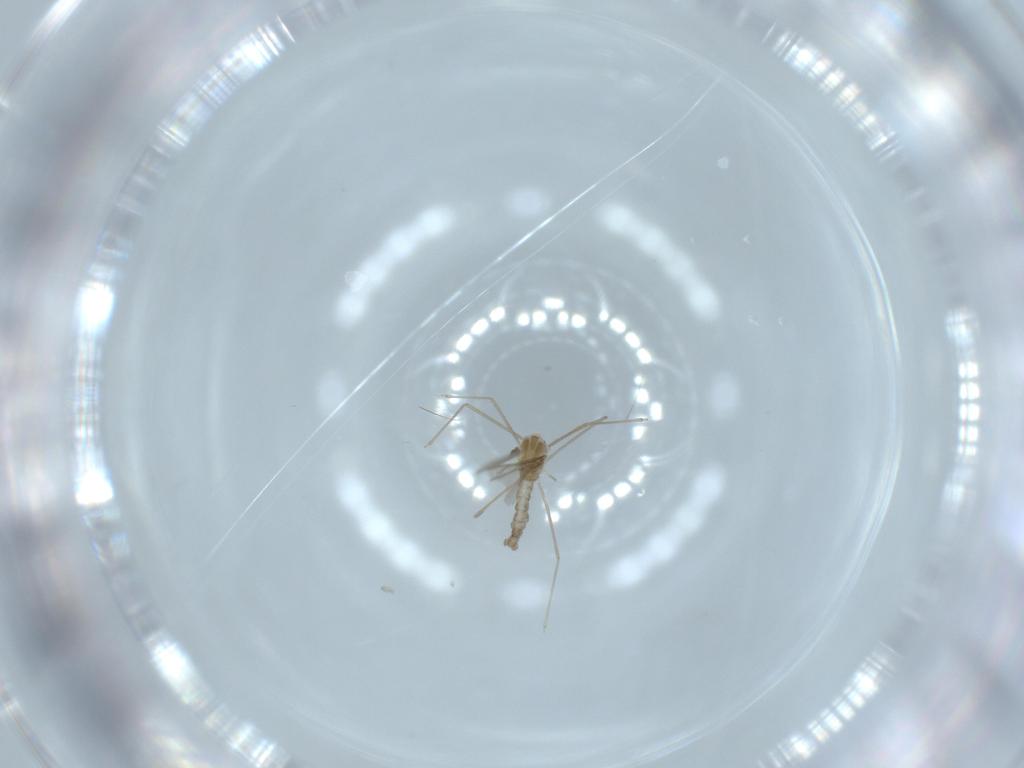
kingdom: Animalia
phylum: Arthropoda
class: Insecta
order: Diptera
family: Cecidomyiidae
